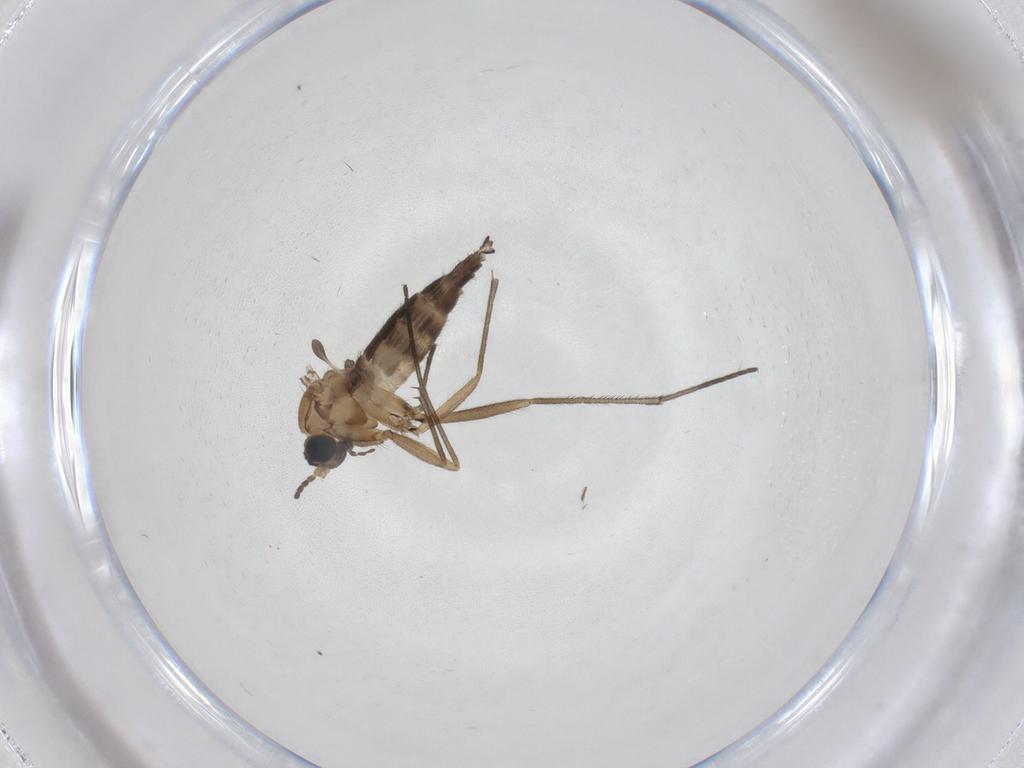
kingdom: Animalia
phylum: Arthropoda
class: Insecta
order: Diptera
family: Sciaridae
